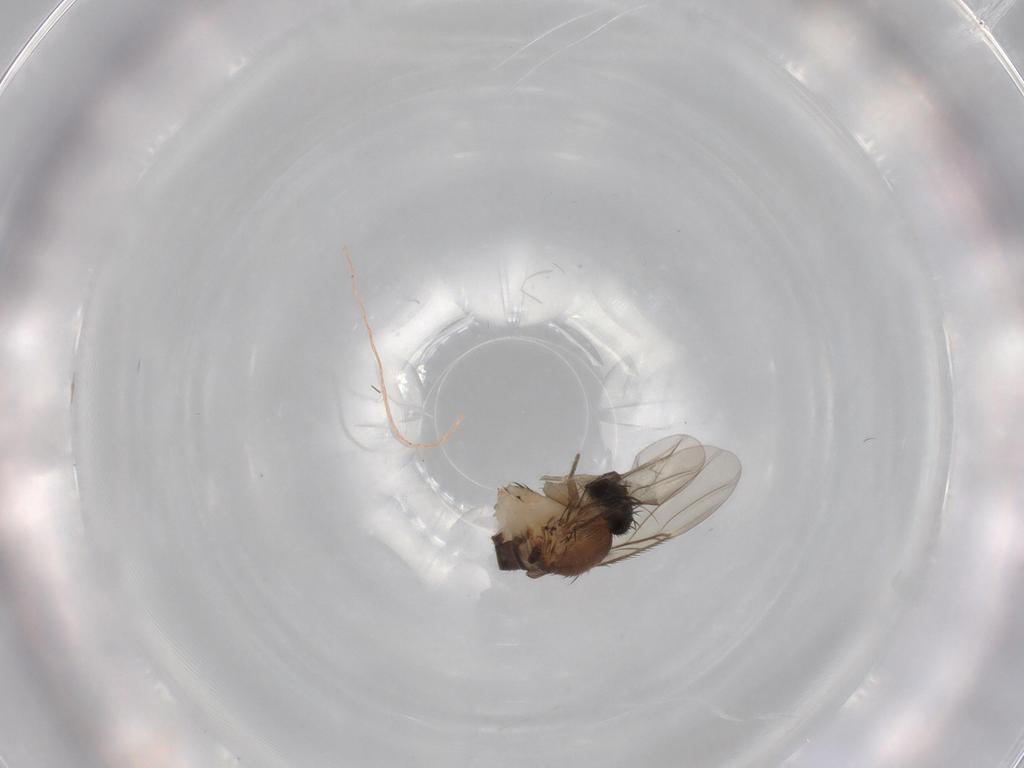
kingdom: Animalia
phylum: Arthropoda
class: Insecta
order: Diptera
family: Phoridae
